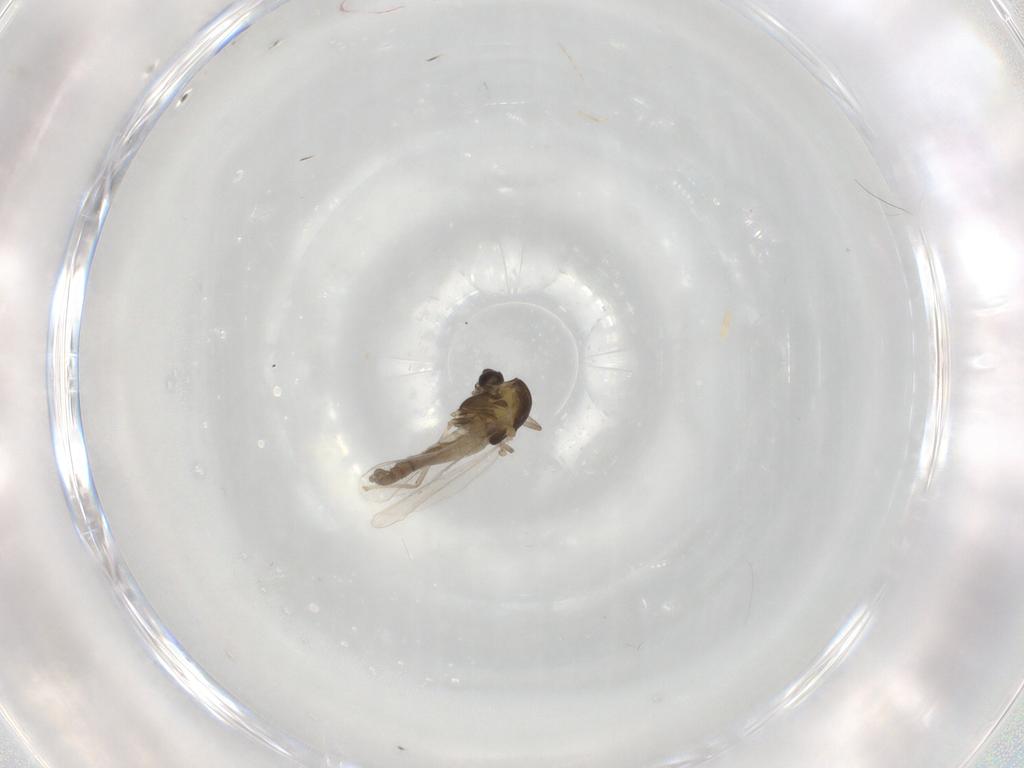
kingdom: Animalia
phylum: Arthropoda
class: Insecta
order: Diptera
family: Chironomidae
